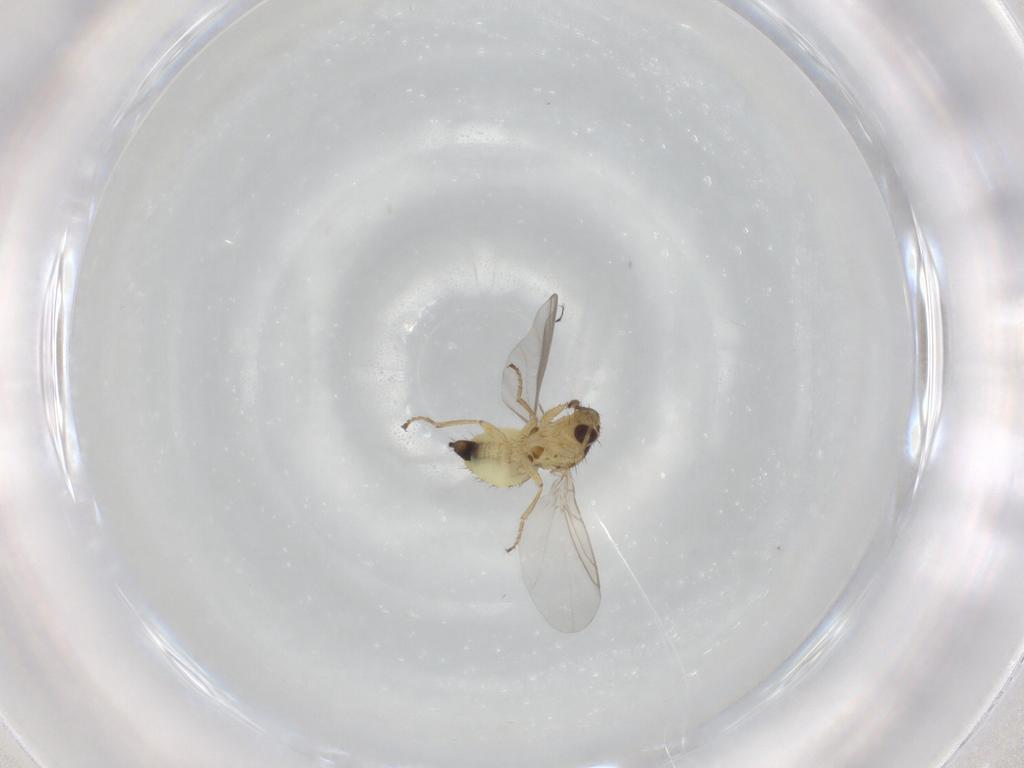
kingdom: Animalia
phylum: Arthropoda
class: Insecta
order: Diptera
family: Agromyzidae
